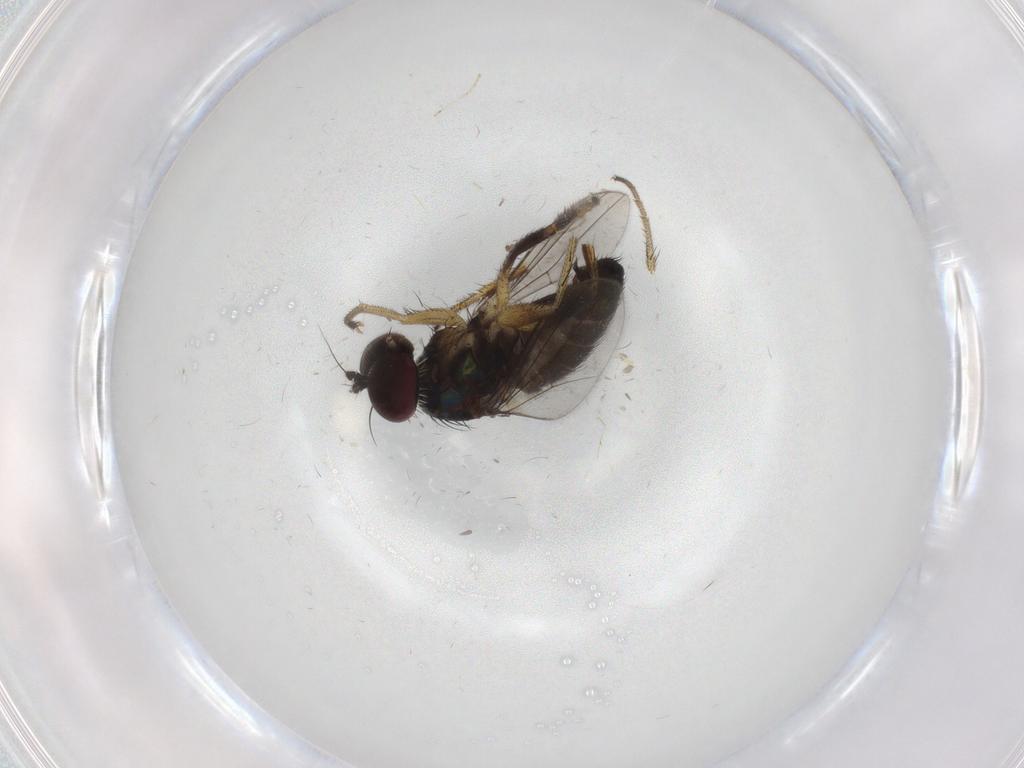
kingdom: Animalia
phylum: Arthropoda
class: Insecta
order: Diptera
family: Dolichopodidae
